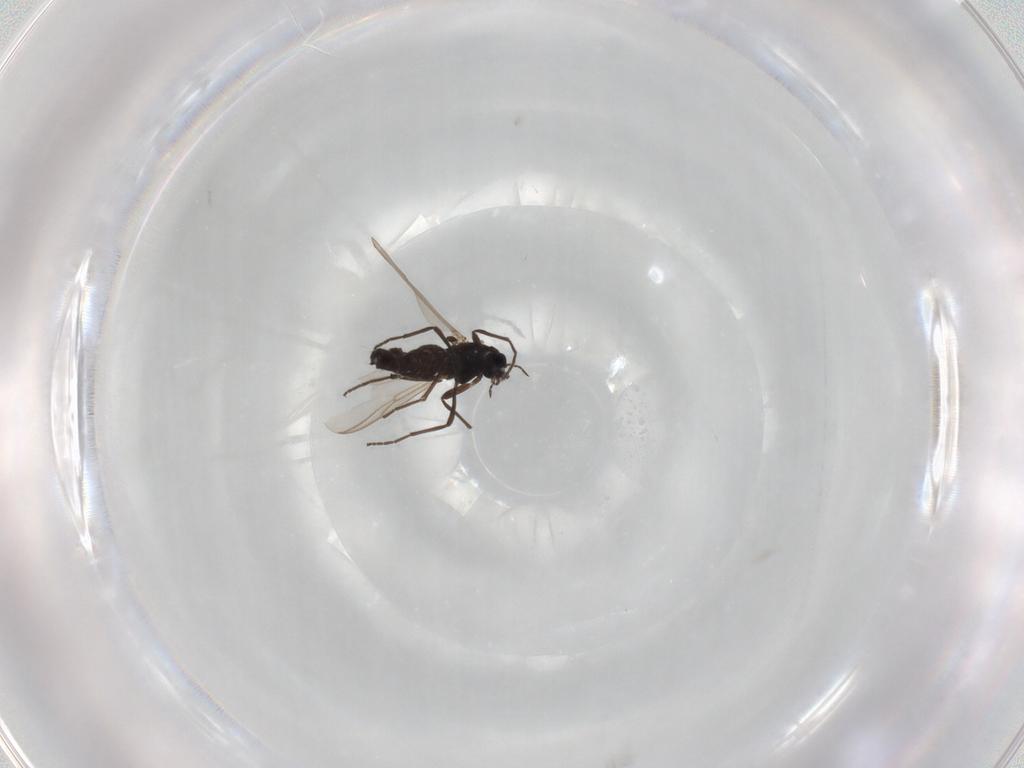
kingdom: Animalia
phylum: Arthropoda
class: Insecta
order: Diptera
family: Chironomidae
